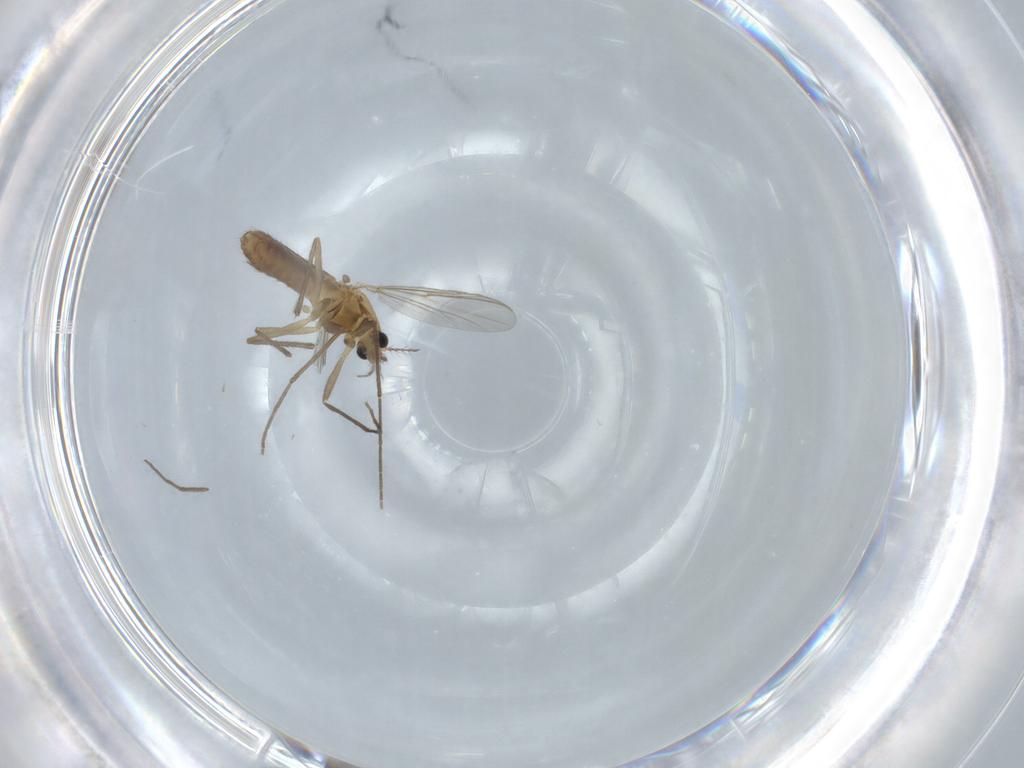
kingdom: Animalia
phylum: Arthropoda
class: Insecta
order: Diptera
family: Chironomidae
